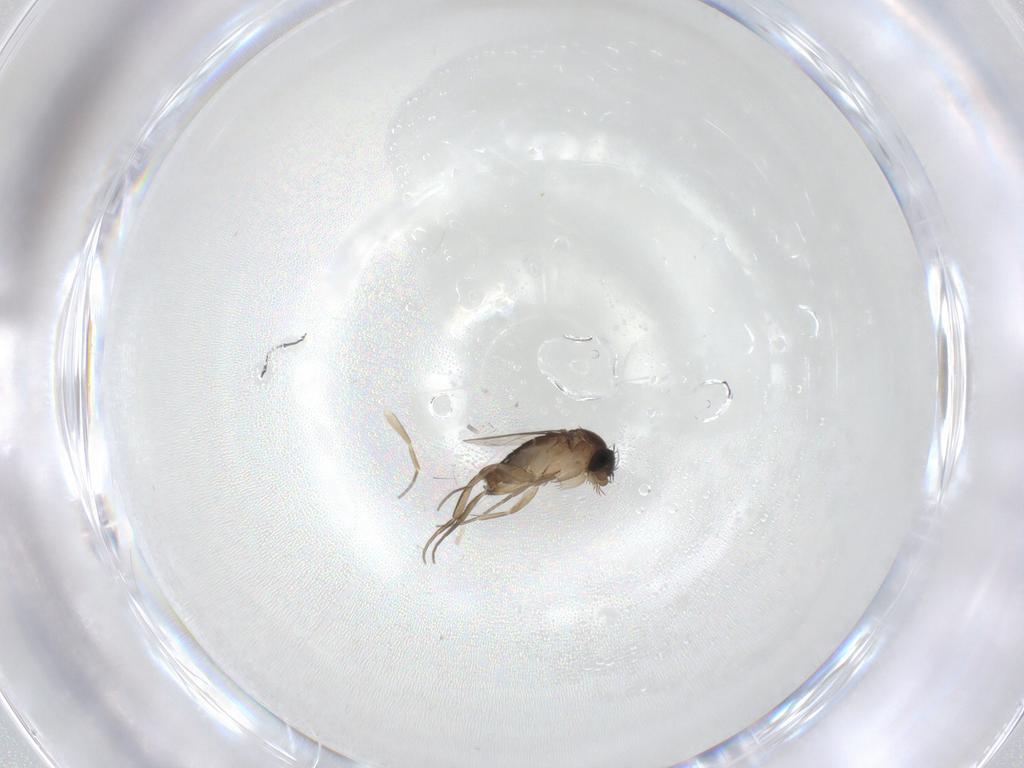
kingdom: Animalia
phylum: Arthropoda
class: Insecta
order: Diptera
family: Phoridae
